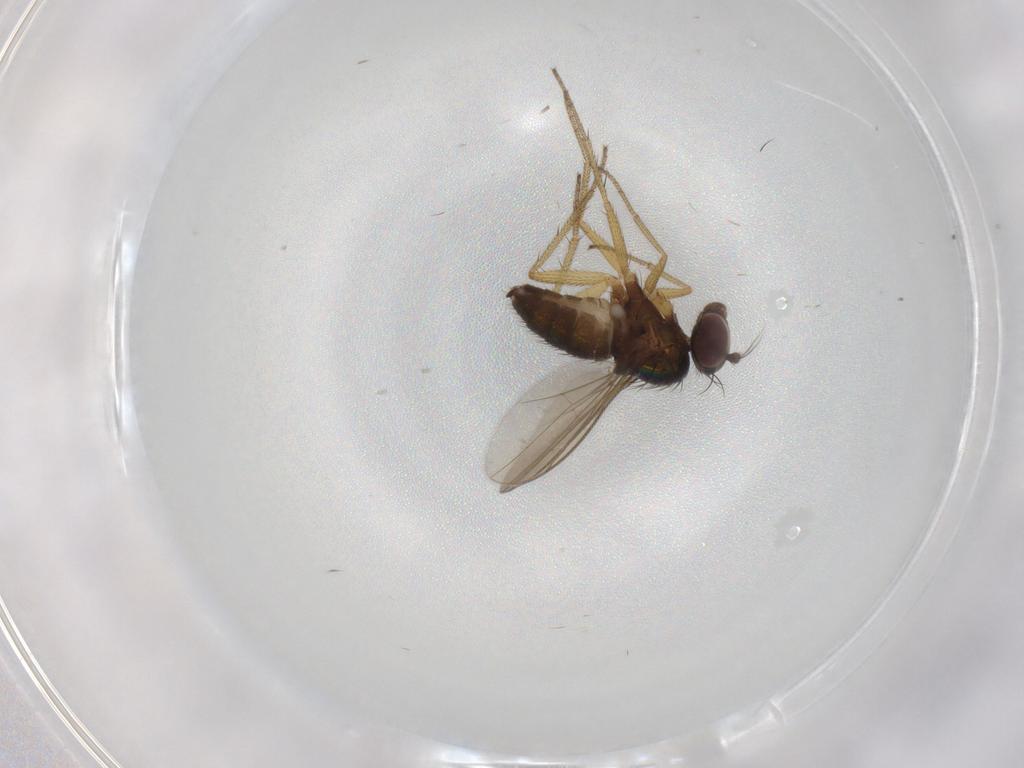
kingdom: Animalia
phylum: Arthropoda
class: Insecta
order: Diptera
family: Dolichopodidae
